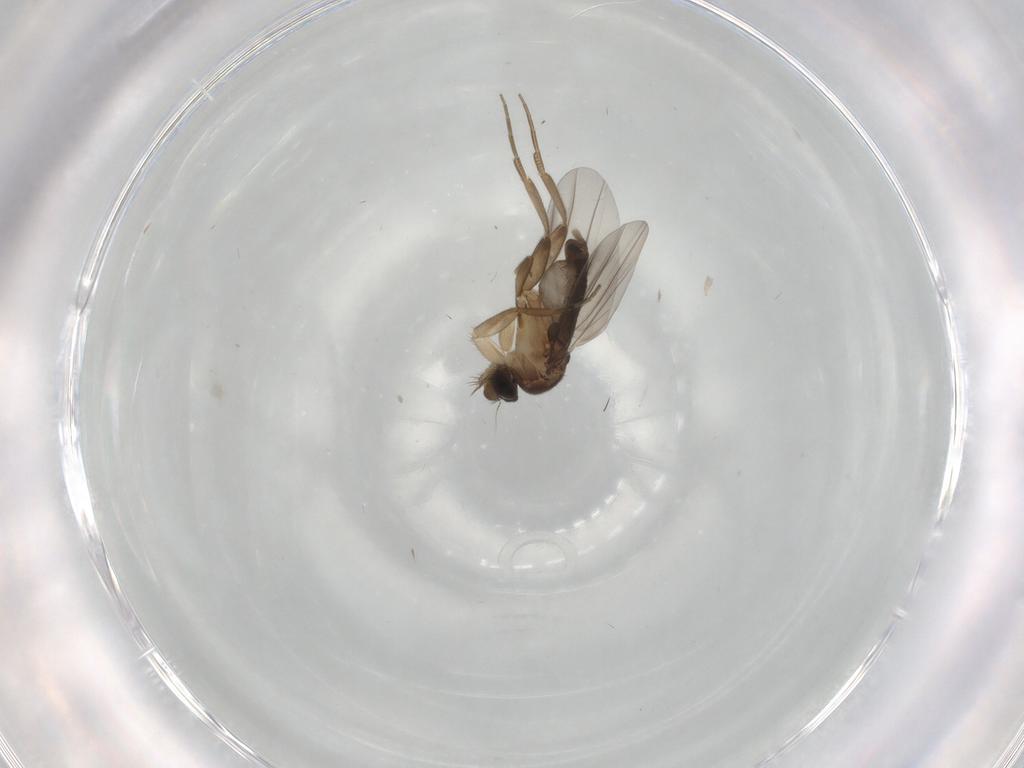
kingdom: Animalia
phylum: Arthropoda
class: Insecta
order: Diptera
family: Phoridae
